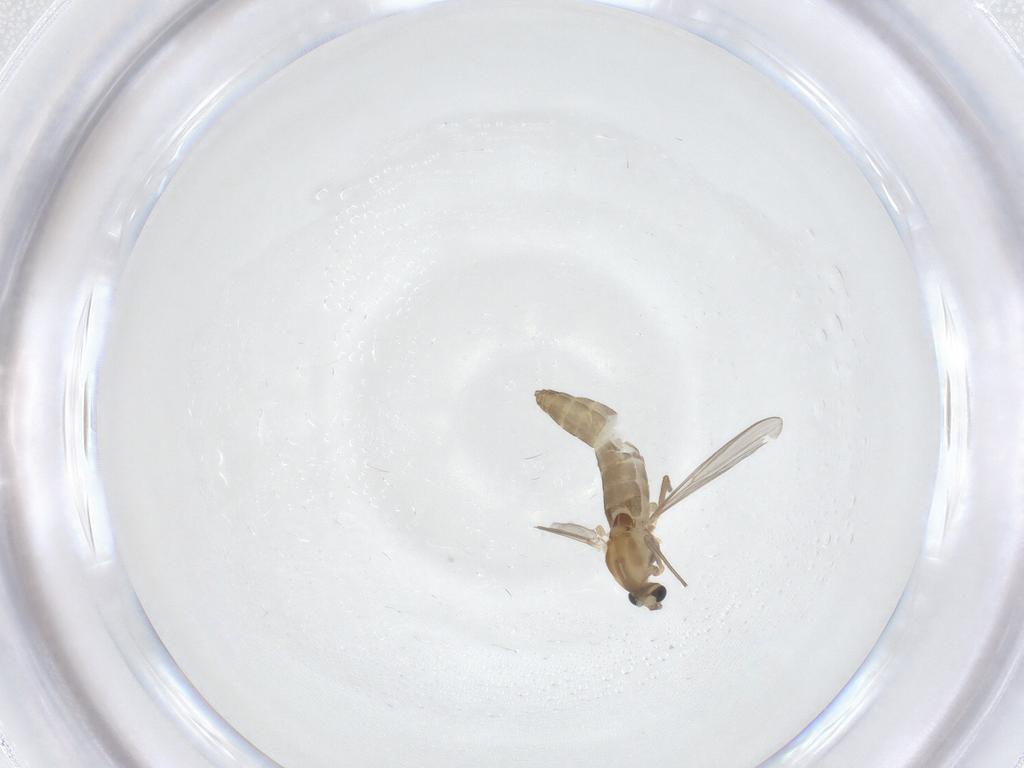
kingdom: Animalia
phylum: Arthropoda
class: Insecta
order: Diptera
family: Chironomidae
